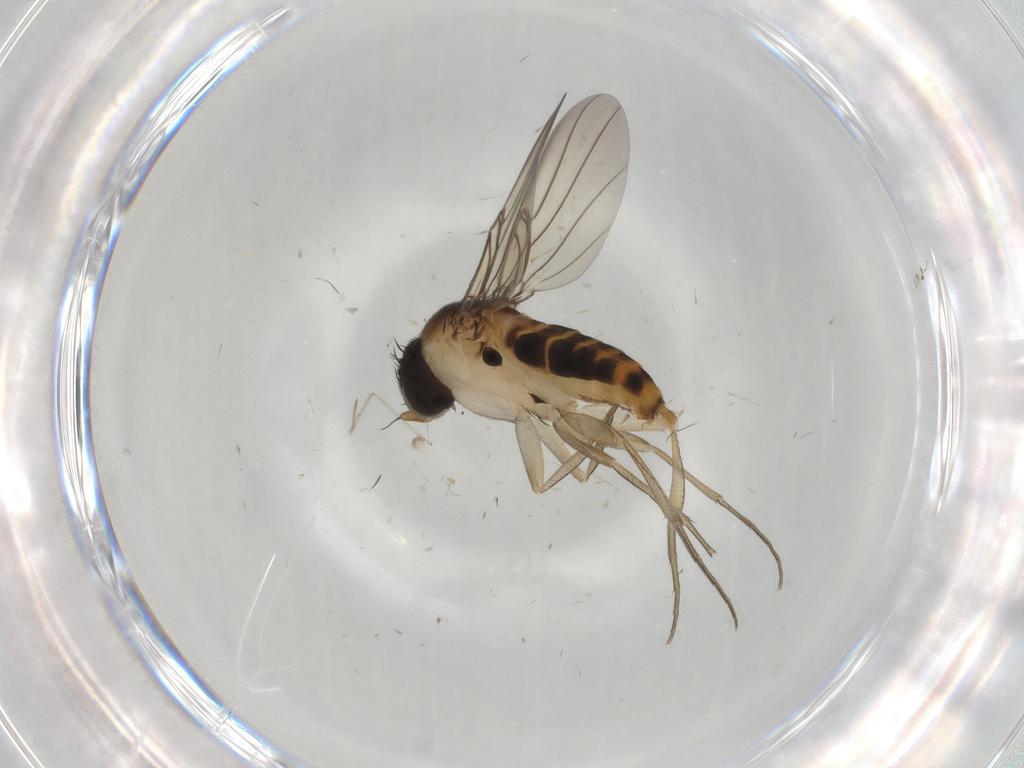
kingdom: Animalia
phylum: Arthropoda
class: Insecta
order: Diptera
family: Phoridae
